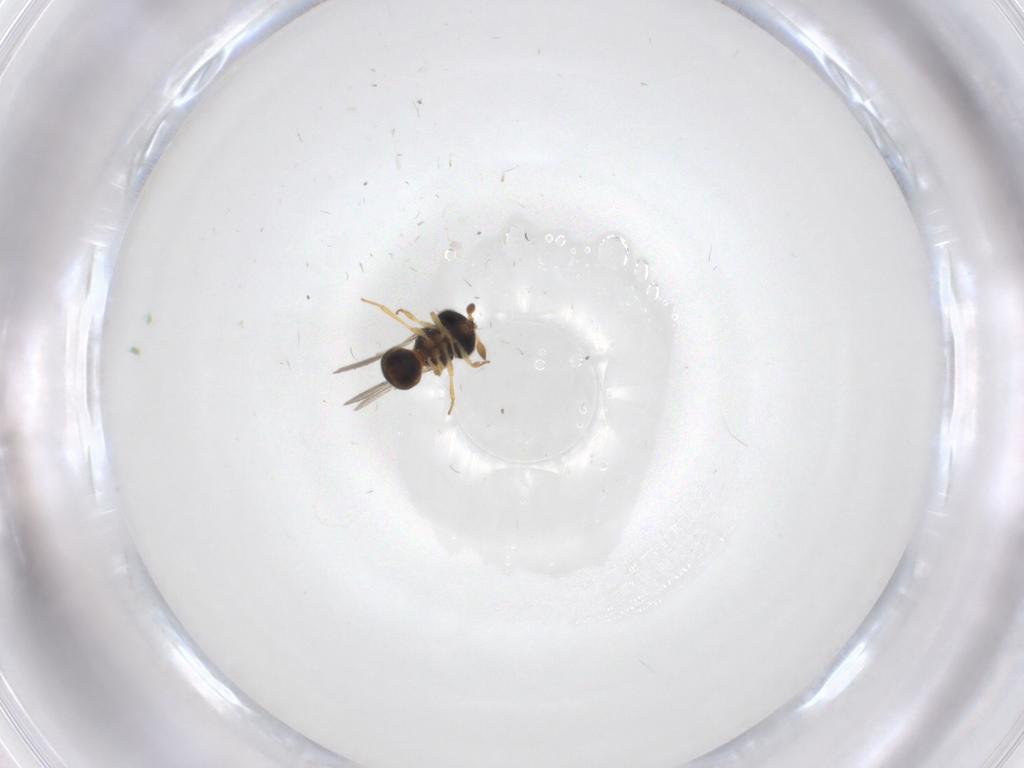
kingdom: Animalia
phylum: Arthropoda
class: Insecta
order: Hymenoptera
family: Scelionidae
